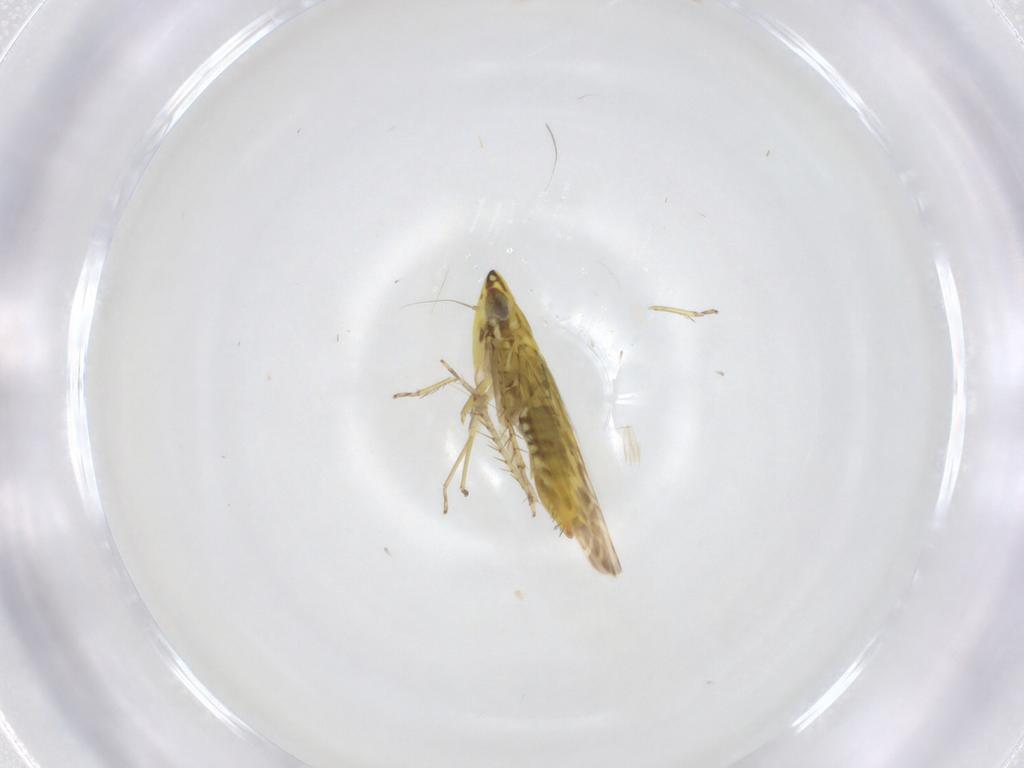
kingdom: Animalia
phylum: Arthropoda
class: Insecta
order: Hemiptera
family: Cicadellidae
